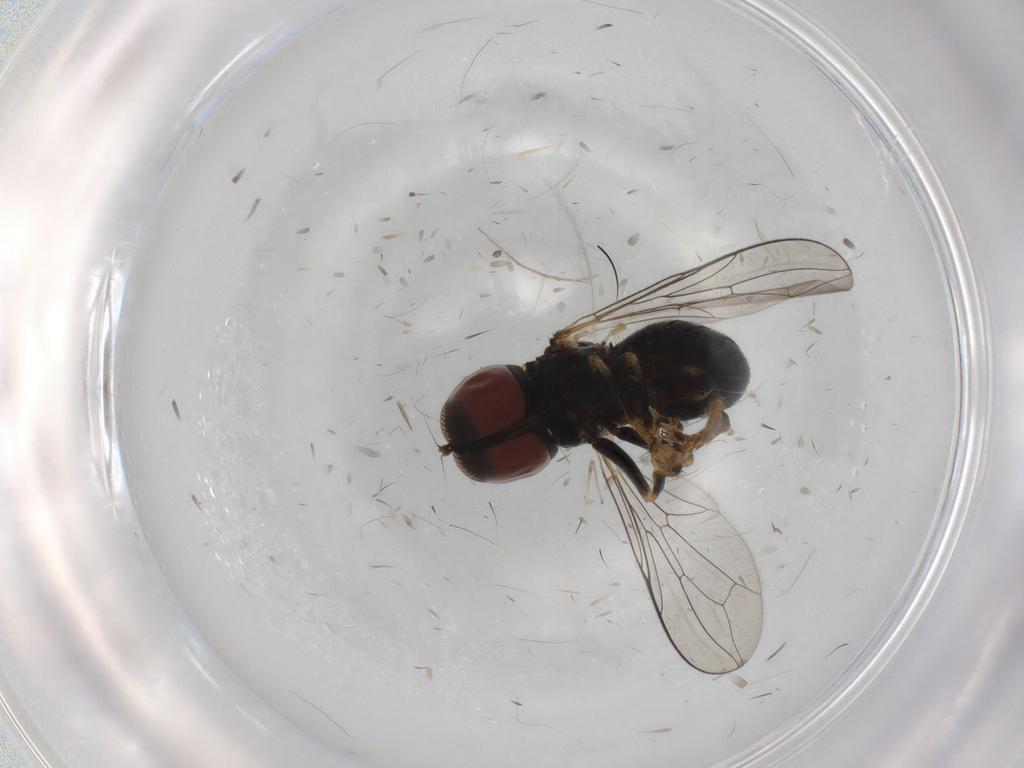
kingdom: Animalia
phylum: Arthropoda
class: Insecta
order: Diptera
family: Pipunculidae
